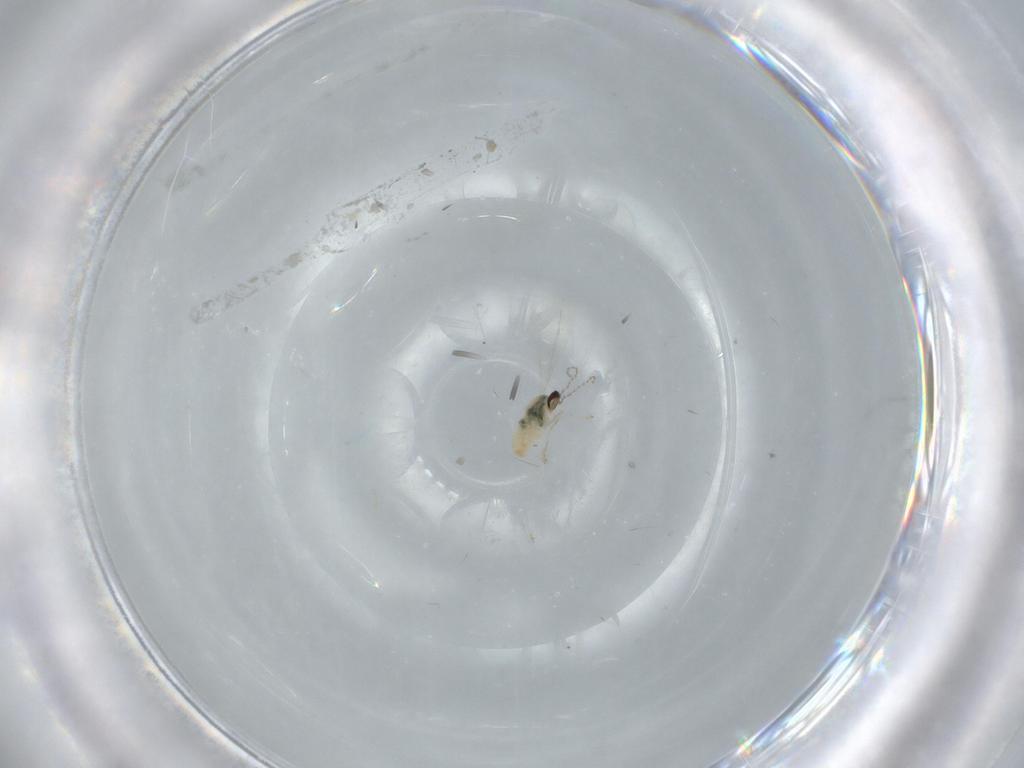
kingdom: Animalia
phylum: Arthropoda
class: Insecta
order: Diptera
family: Cecidomyiidae
